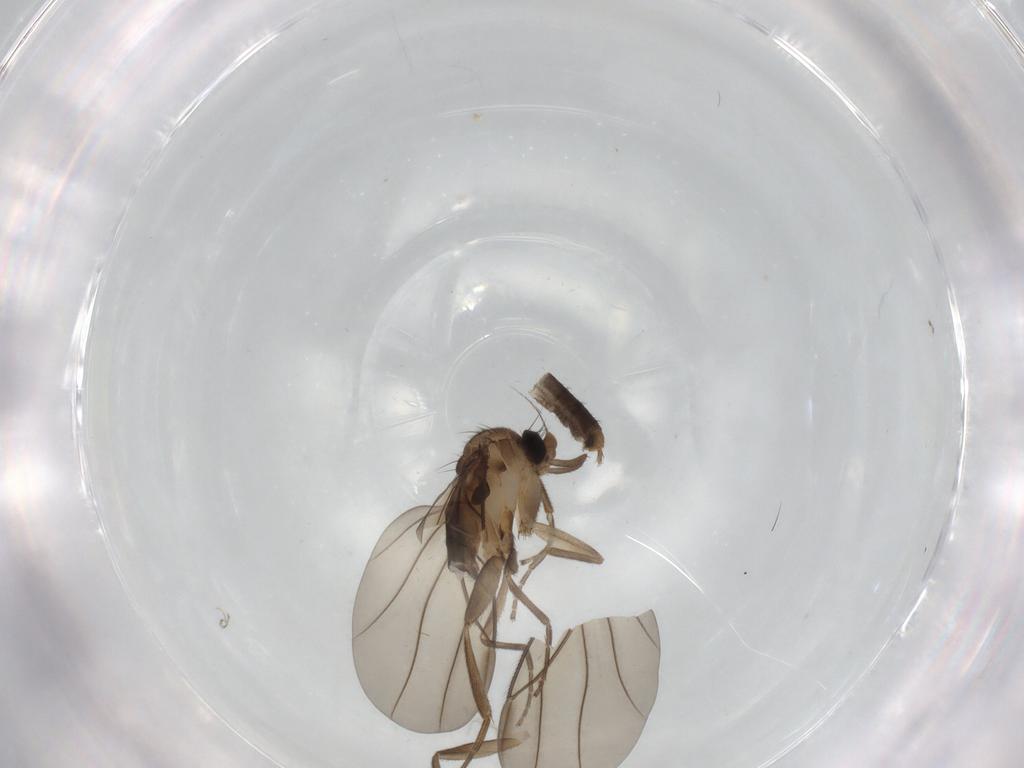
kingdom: Animalia
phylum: Arthropoda
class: Insecta
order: Diptera
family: Phoridae
